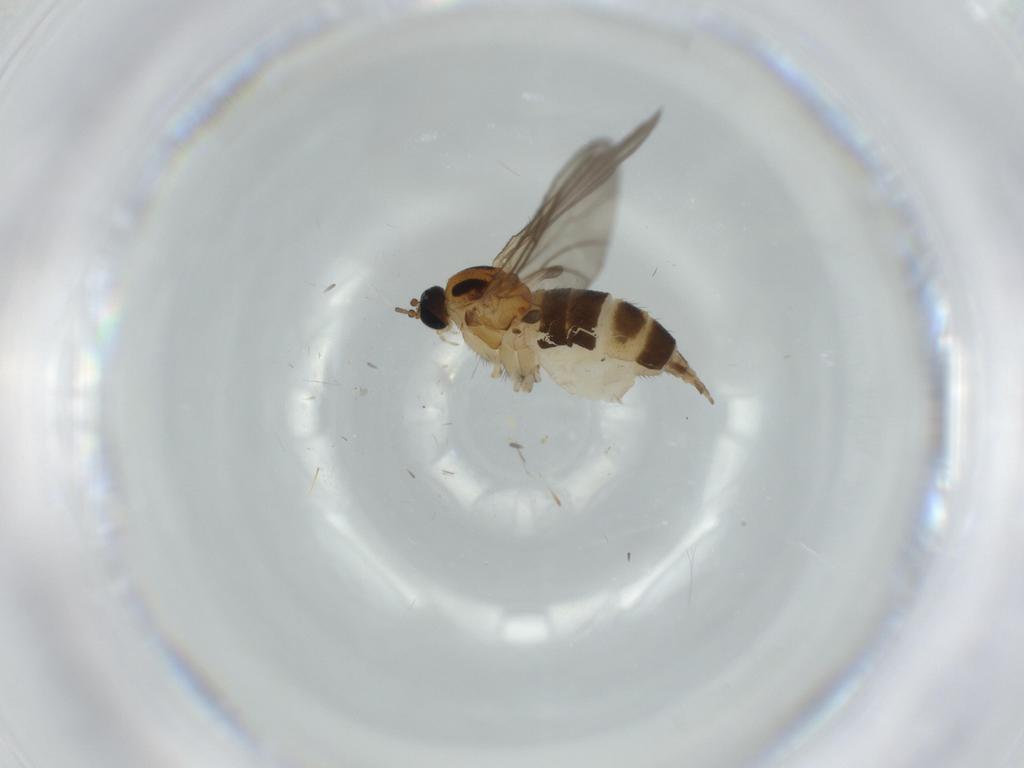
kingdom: Animalia
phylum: Arthropoda
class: Insecta
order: Diptera
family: Sciaridae
